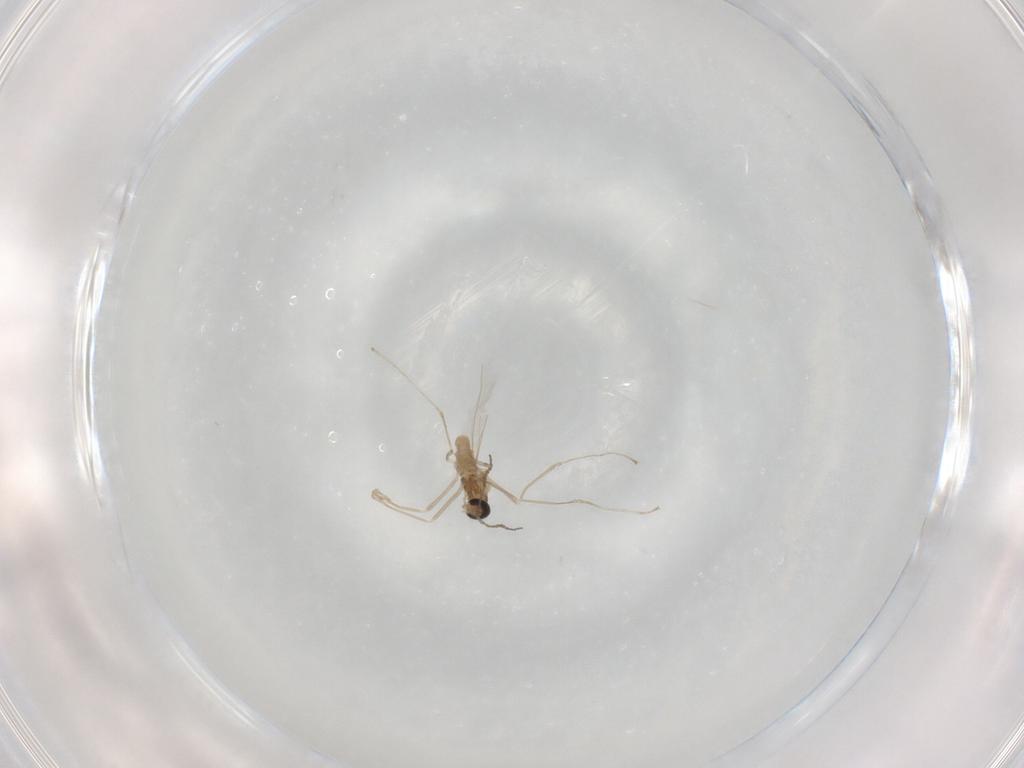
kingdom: Animalia
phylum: Arthropoda
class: Insecta
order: Diptera
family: Cecidomyiidae
